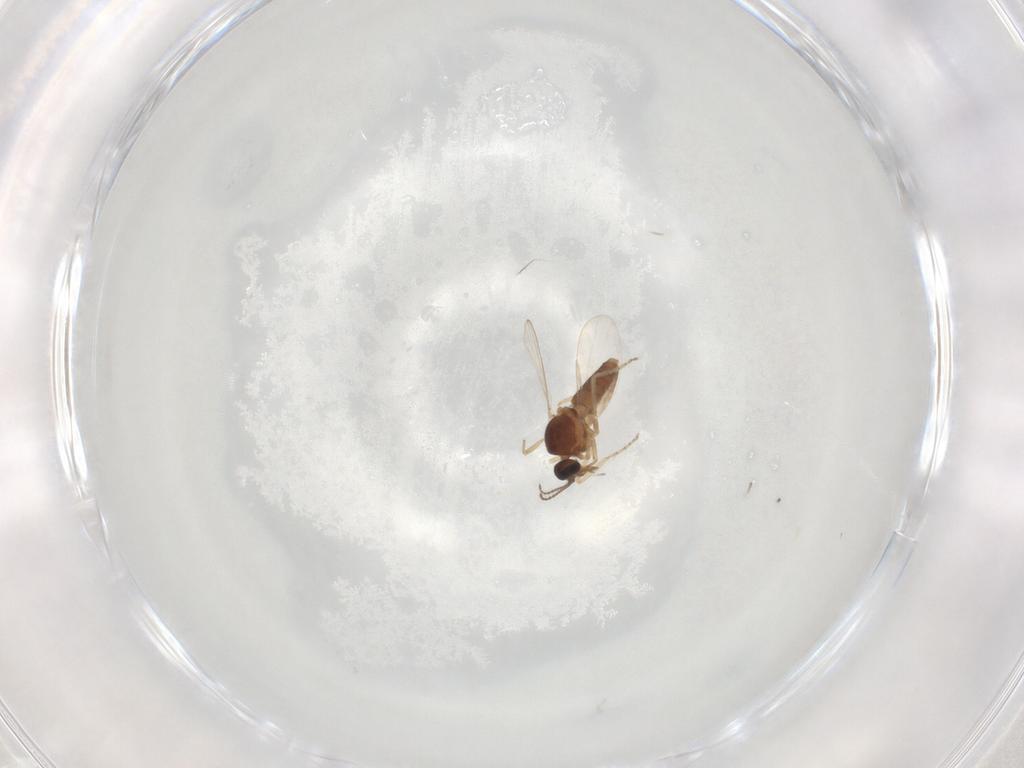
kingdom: Animalia
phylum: Arthropoda
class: Insecta
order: Diptera
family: Ceratopogonidae
